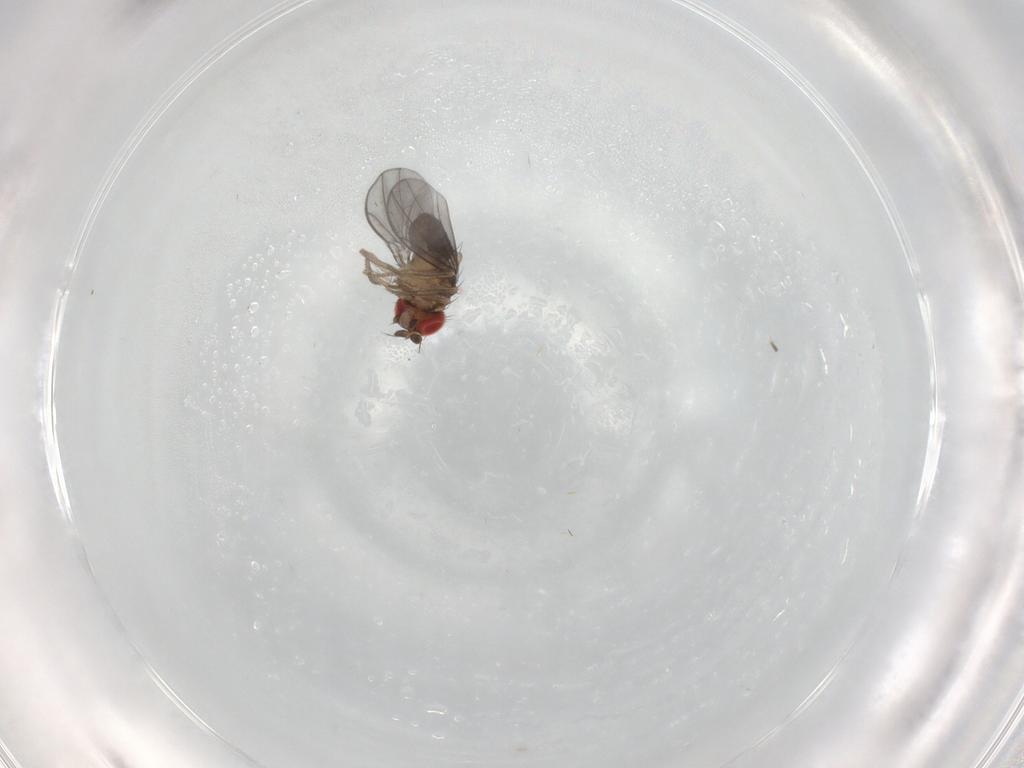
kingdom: Animalia
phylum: Arthropoda
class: Insecta
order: Diptera
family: Drosophilidae
